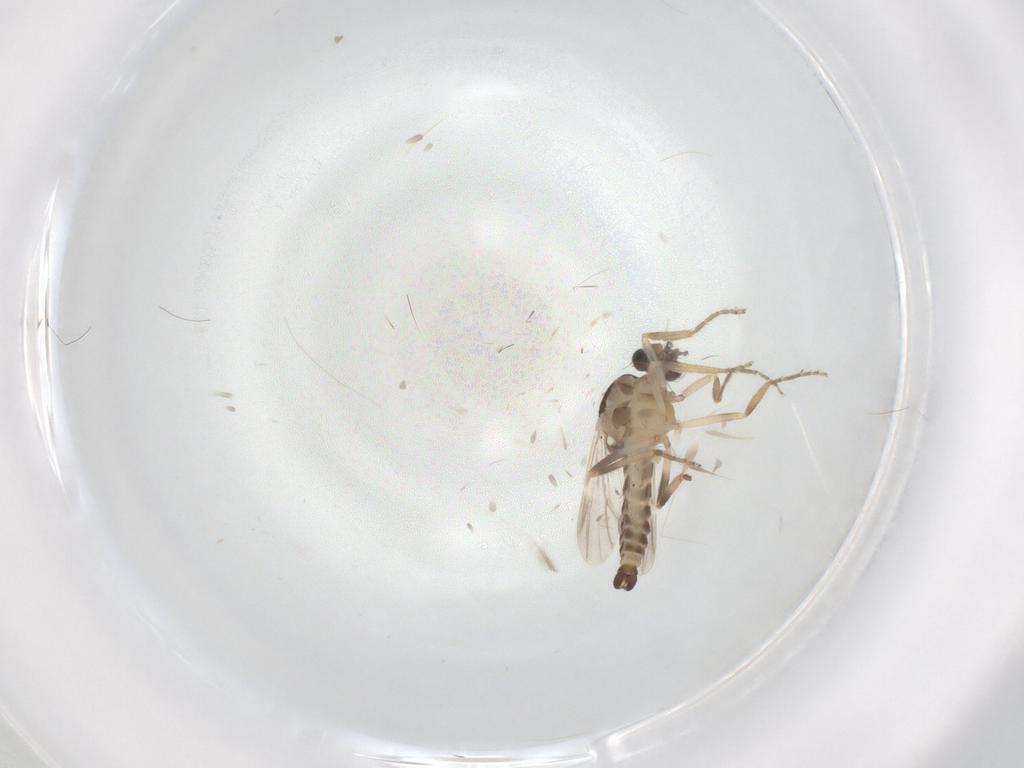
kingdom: Animalia
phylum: Arthropoda
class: Insecta
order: Diptera
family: Ceratopogonidae
